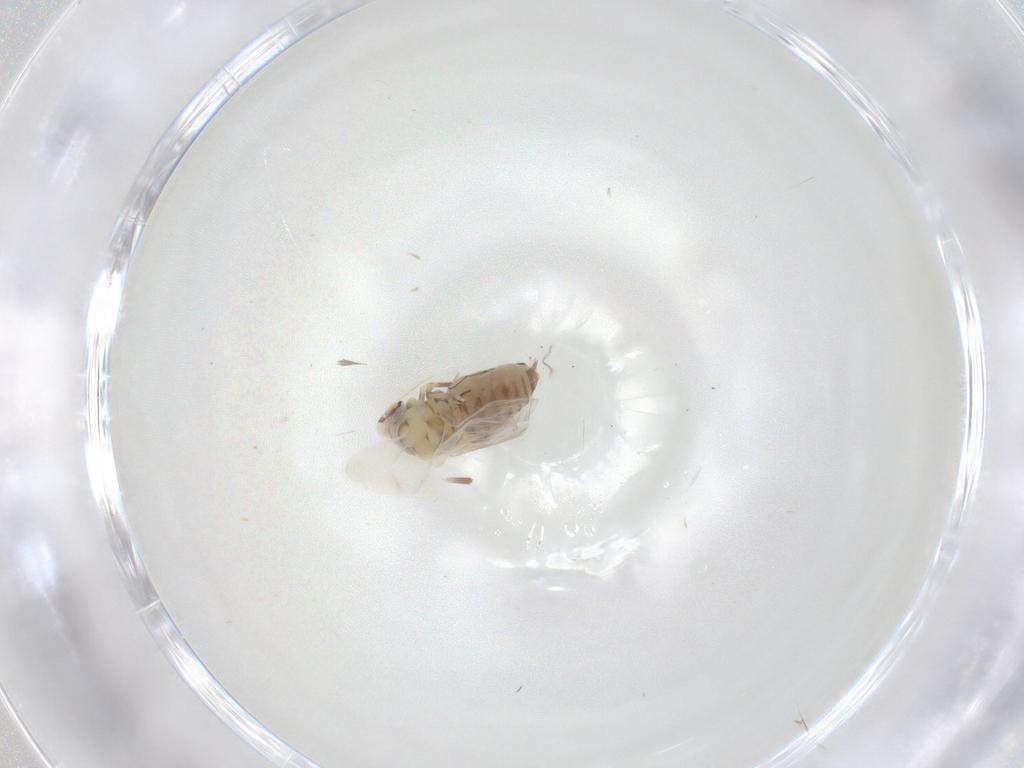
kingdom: Animalia
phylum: Arthropoda
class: Insecta
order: Hemiptera
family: Aleyrodidae
